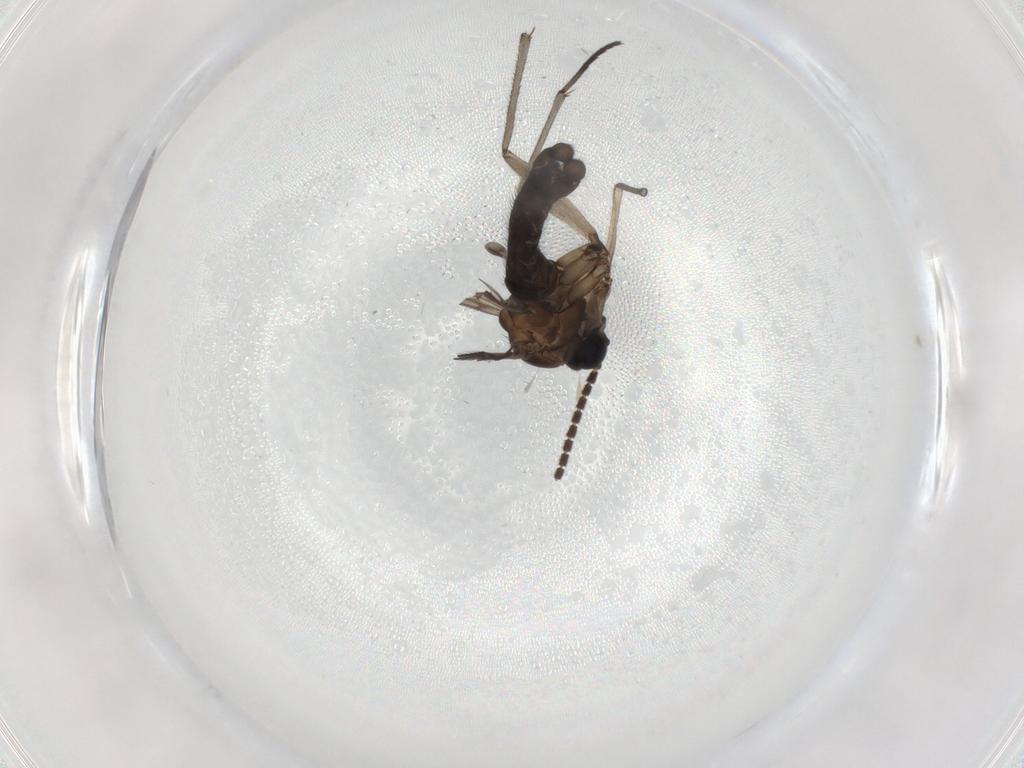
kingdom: Animalia
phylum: Arthropoda
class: Insecta
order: Diptera
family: Sciaridae
